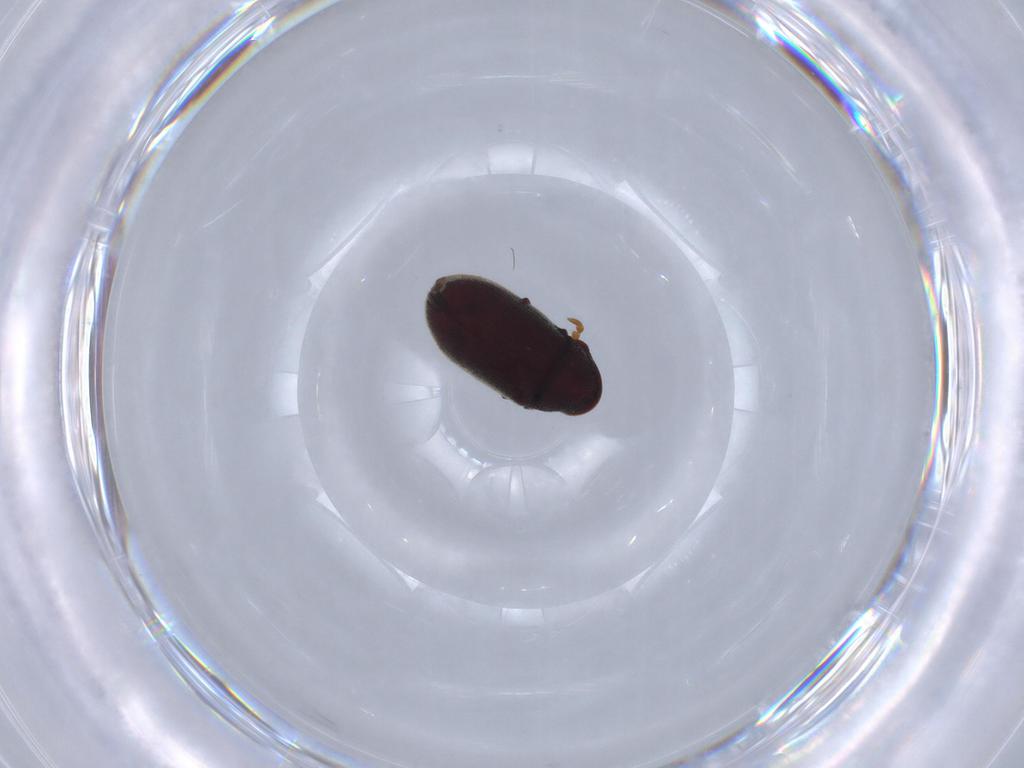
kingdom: Animalia
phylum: Arthropoda
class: Insecta
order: Coleoptera
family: Anobiidae
